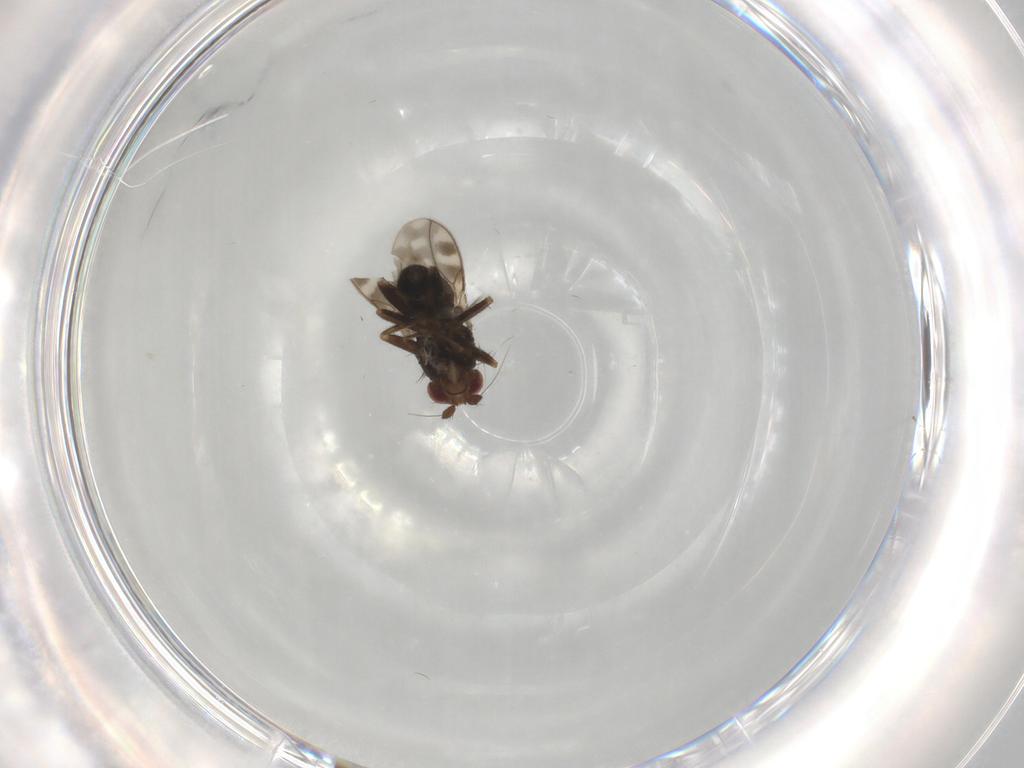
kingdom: Animalia
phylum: Arthropoda
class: Insecta
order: Diptera
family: Sphaeroceridae
